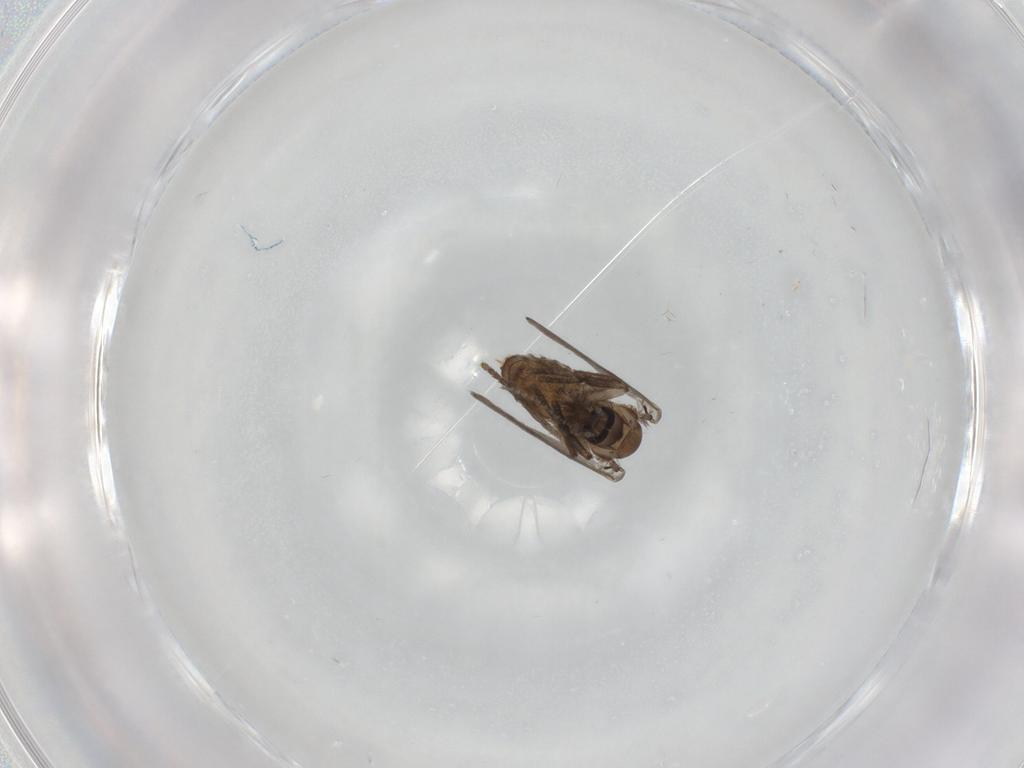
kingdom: Animalia
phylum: Arthropoda
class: Insecta
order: Diptera
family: Psychodidae
